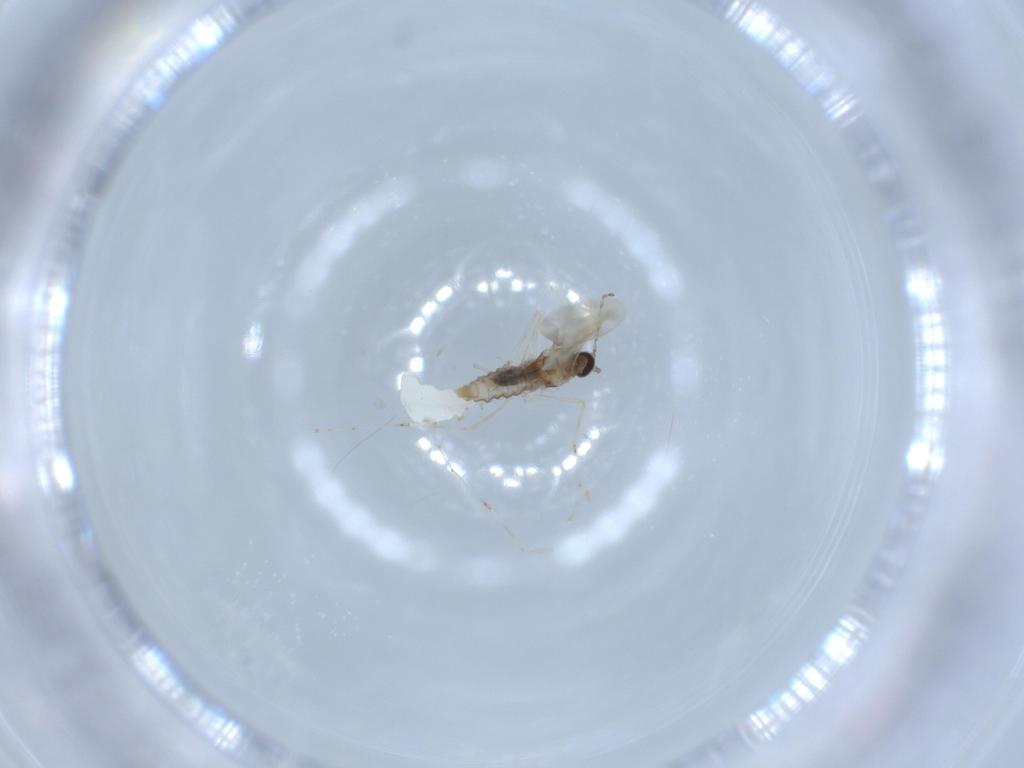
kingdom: Animalia
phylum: Arthropoda
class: Insecta
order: Diptera
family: Cecidomyiidae
